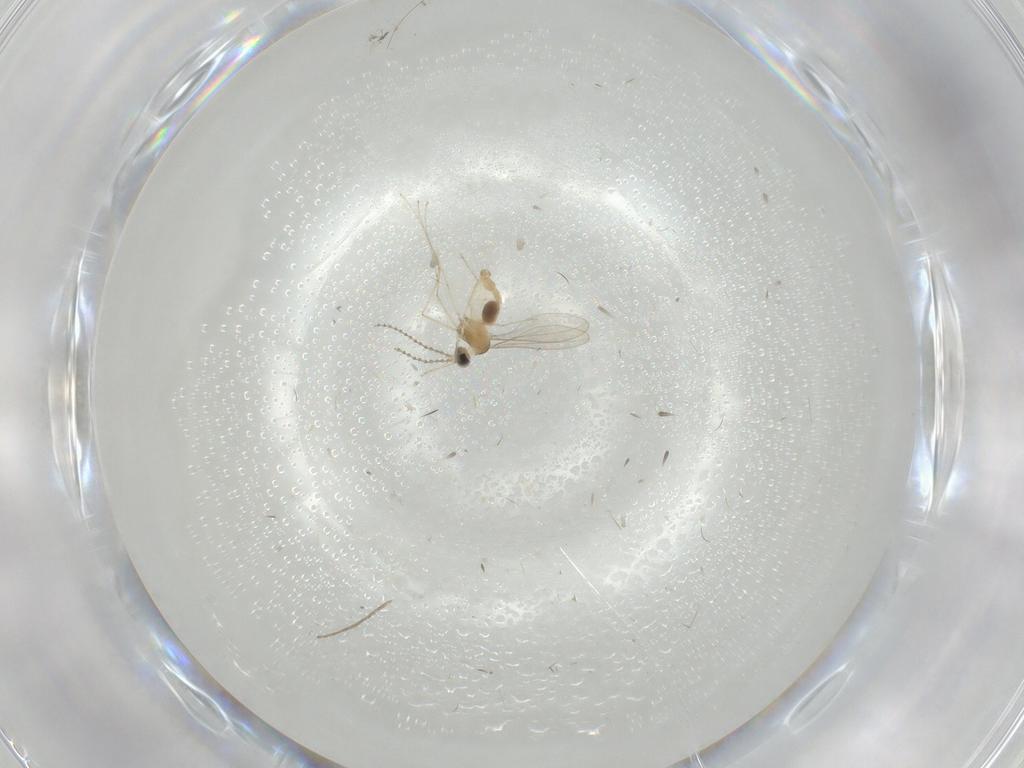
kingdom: Animalia
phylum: Arthropoda
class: Insecta
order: Diptera
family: Cecidomyiidae
